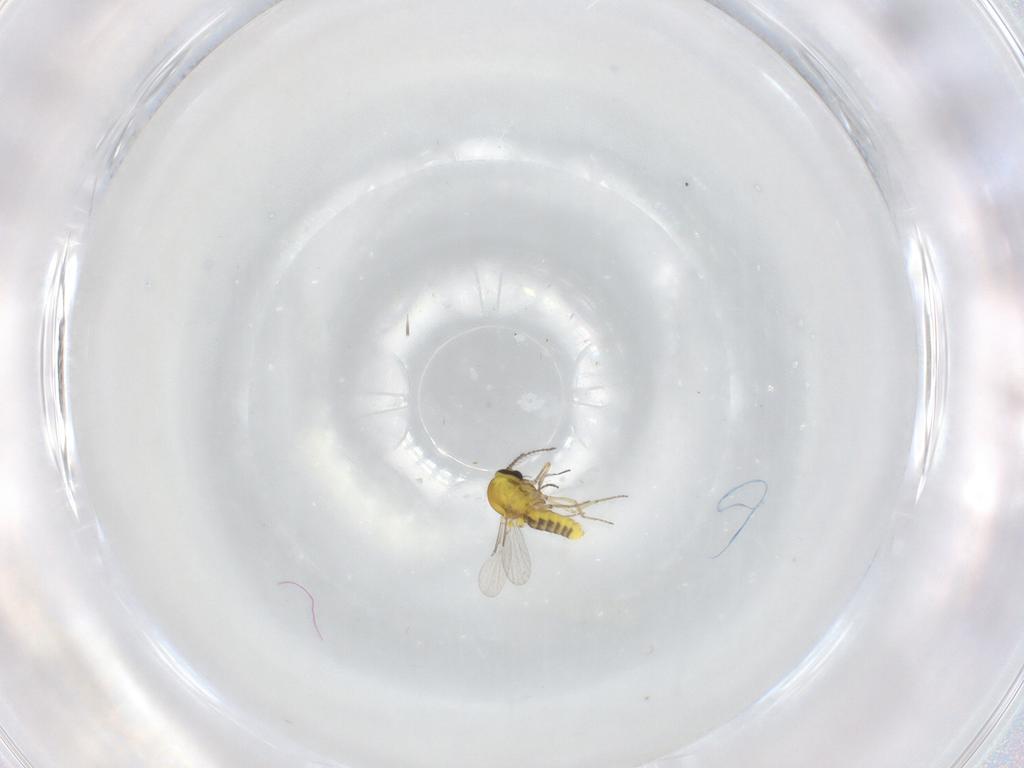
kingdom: Animalia
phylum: Arthropoda
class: Insecta
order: Diptera
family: Ceratopogonidae
